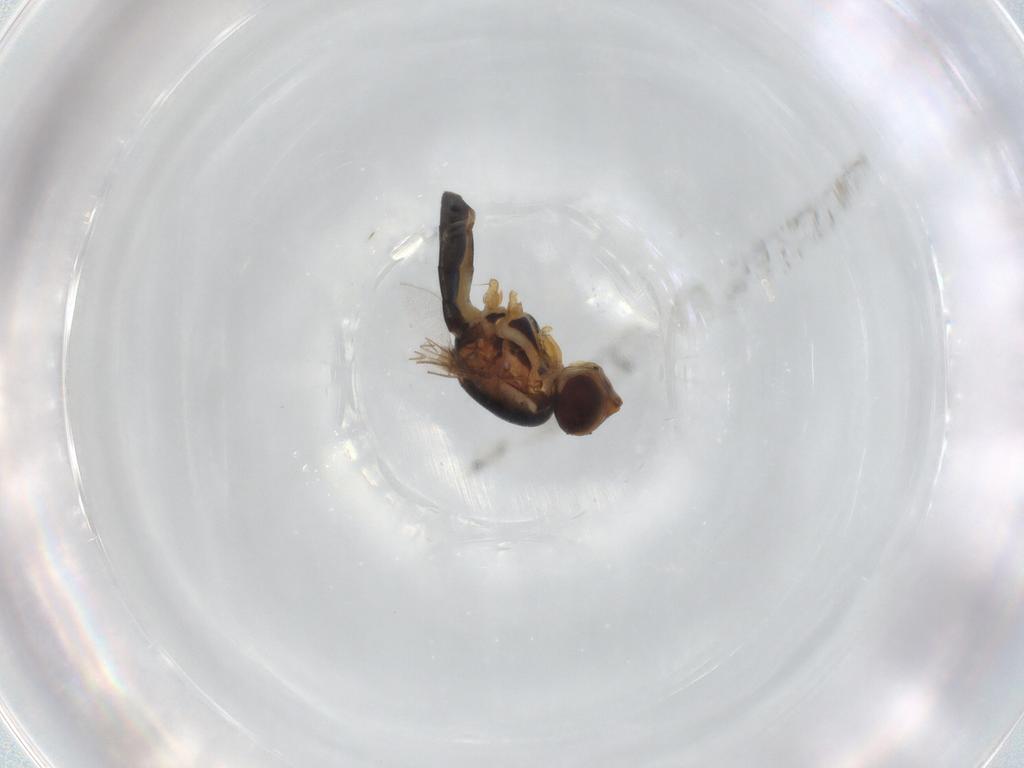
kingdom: Animalia
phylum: Arthropoda
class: Insecta
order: Diptera
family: Chloropidae
